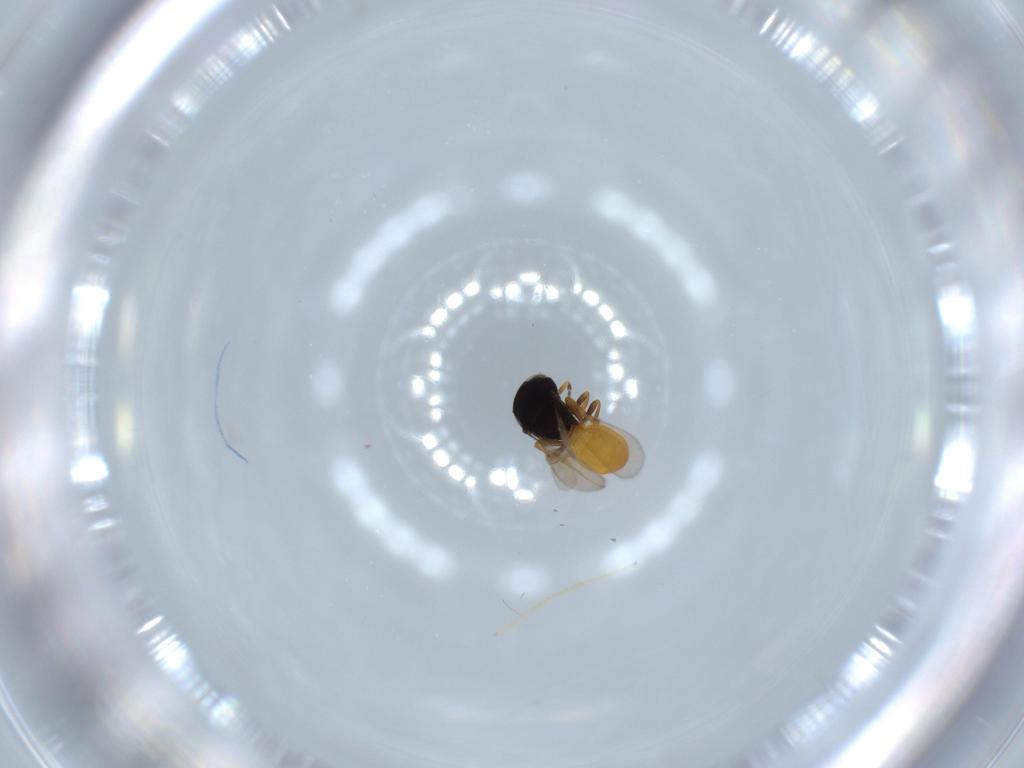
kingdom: Animalia
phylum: Arthropoda
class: Insecta
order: Hymenoptera
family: Scelionidae
